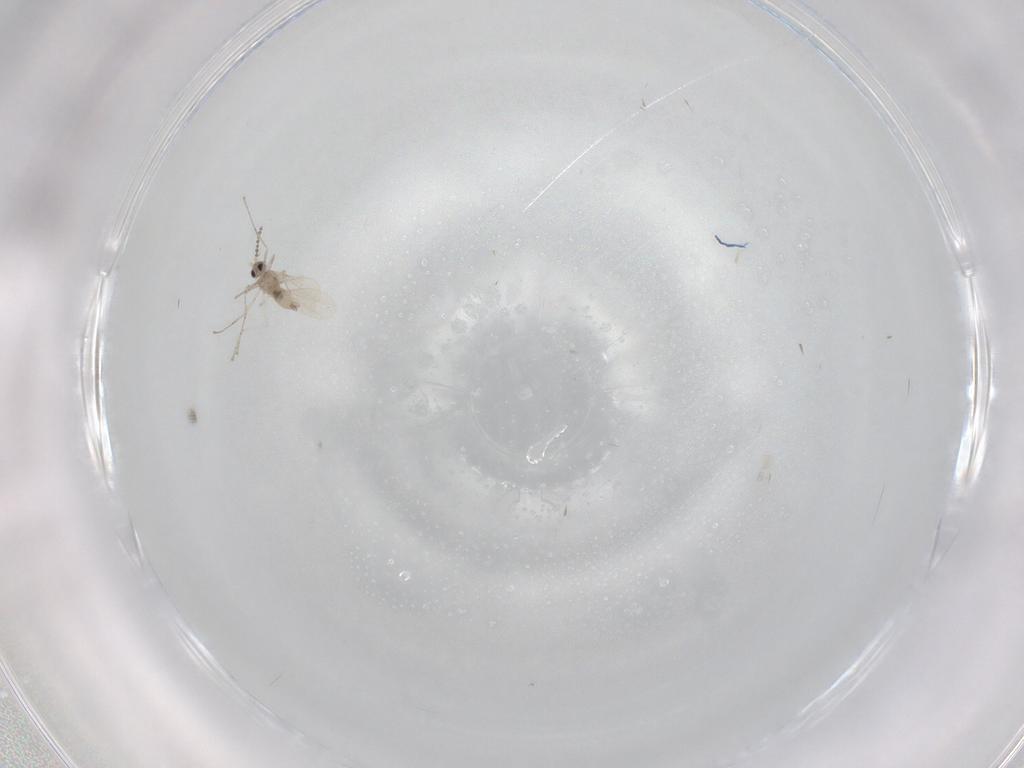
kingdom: Animalia
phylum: Arthropoda
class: Insecta
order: Diptera
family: Cecidomyiidae
